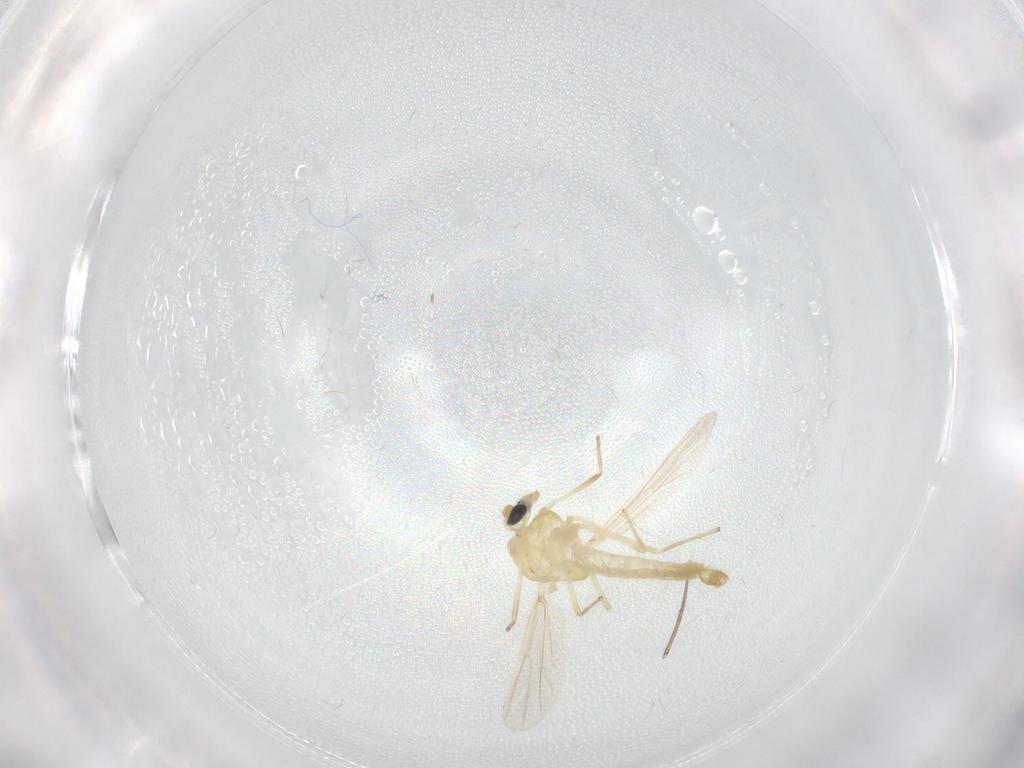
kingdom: Animalia
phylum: Arthropoda
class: Insecta
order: Diptera
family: Chironomidae
